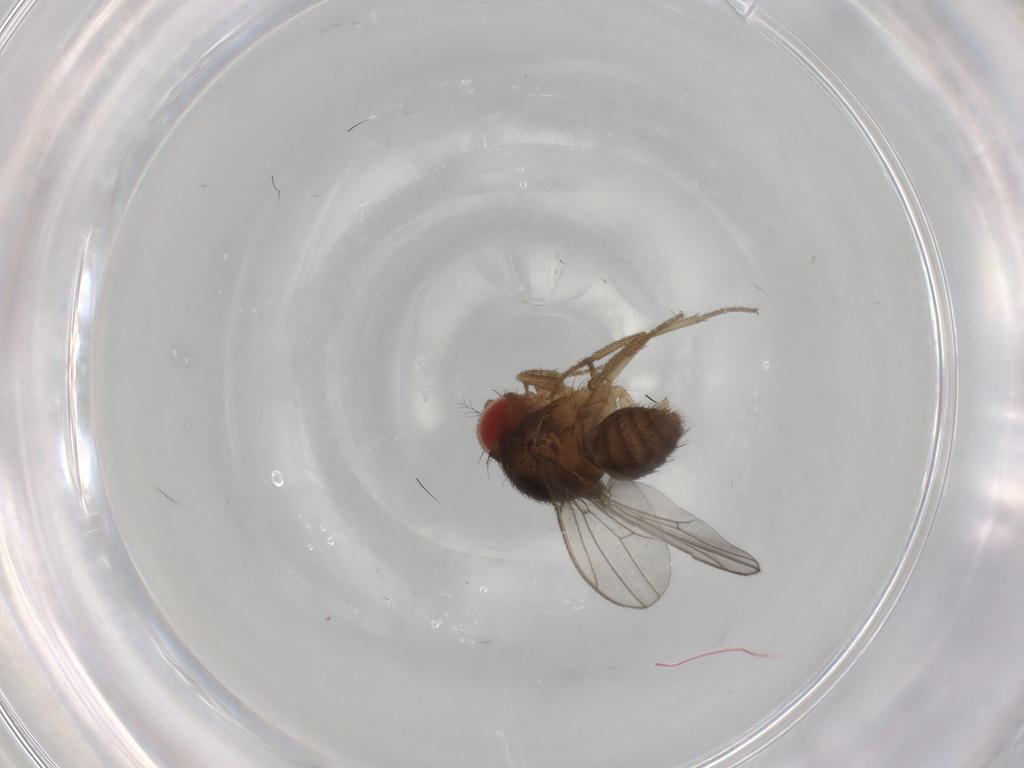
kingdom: Animalia
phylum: Arthropoda
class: Insecta
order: Diptera
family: Drosophilidae
